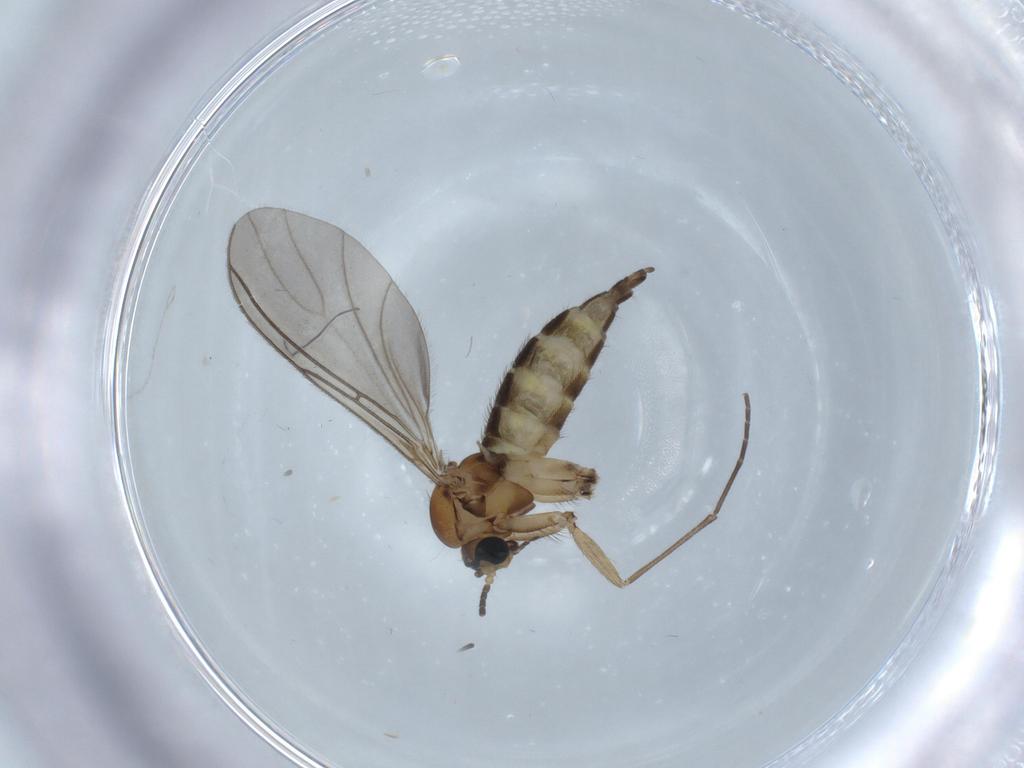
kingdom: Animalia
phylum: Arthropoda
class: Insecta
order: Diptera
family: Sciaridae
